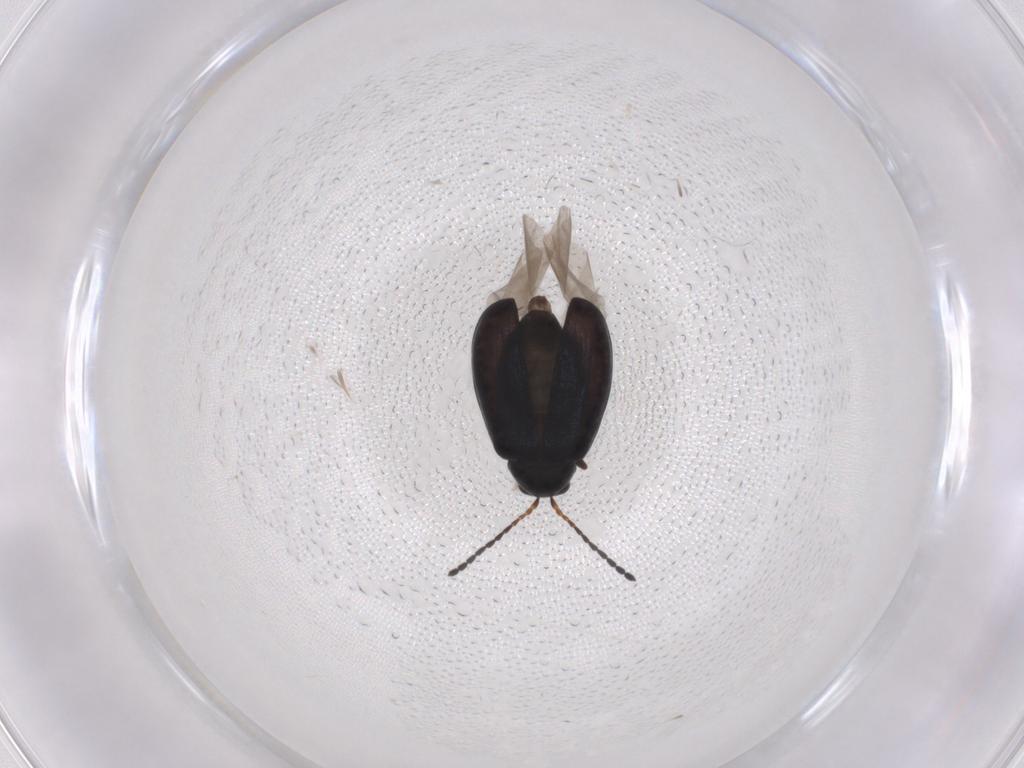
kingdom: Animalia
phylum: Arthropoda
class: Insecta
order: Coleoptera
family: Chrysomelidae
